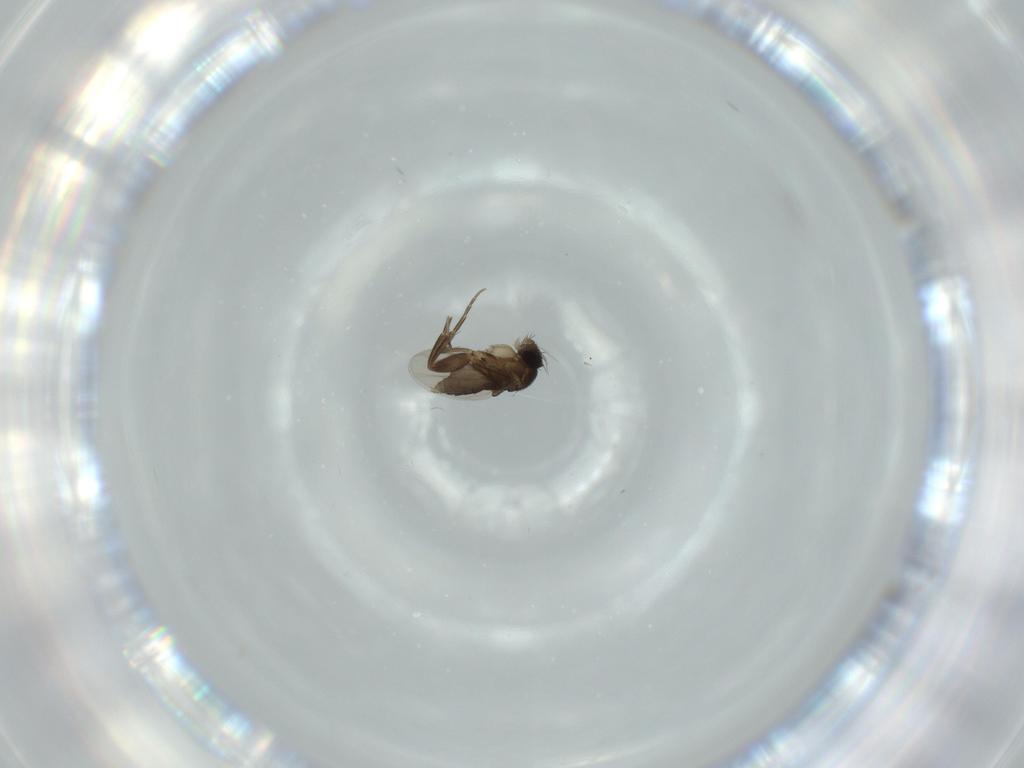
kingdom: Animalia
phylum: Arthropoda
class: Insecta
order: Diptera
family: Phoridae
